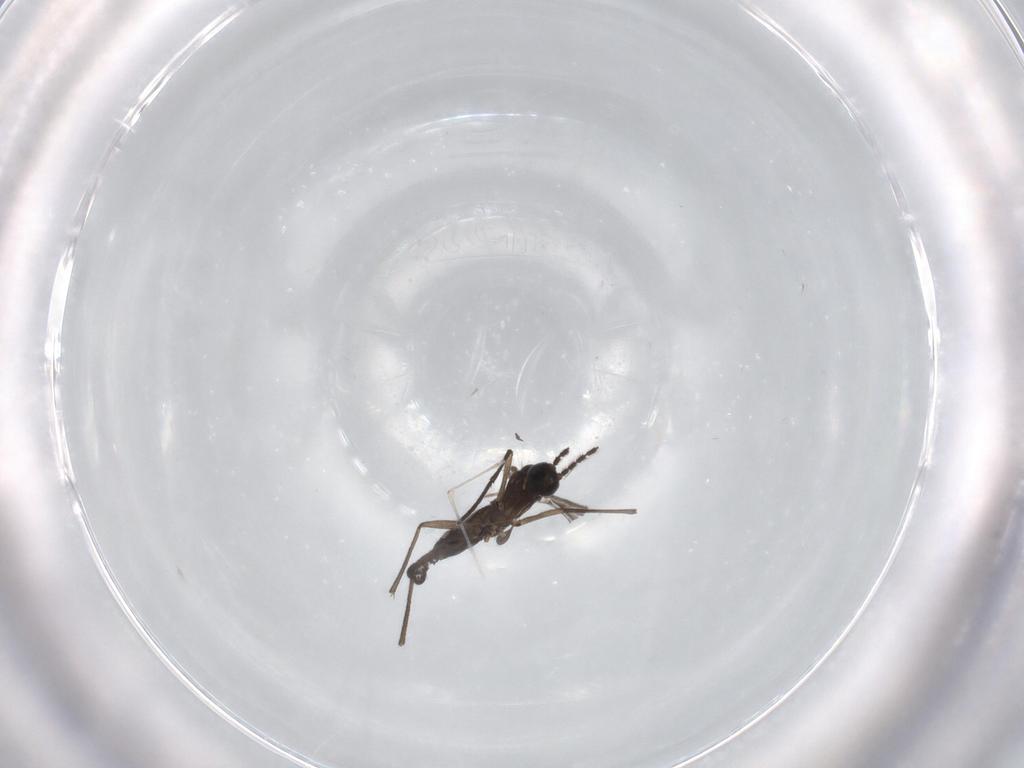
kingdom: Animalia
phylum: Arthropoda
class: Insecta
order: Diptera
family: Sciaridae
